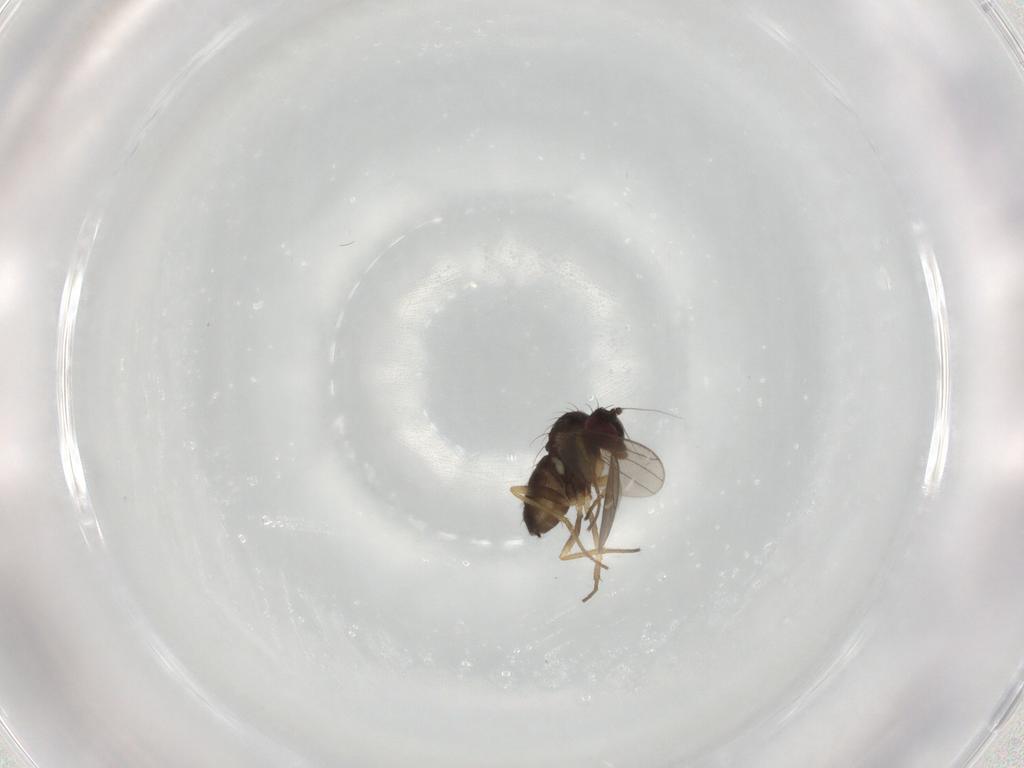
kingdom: Animalia
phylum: Arthropoda
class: Insecta
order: Diptera
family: Dolichopodidae
